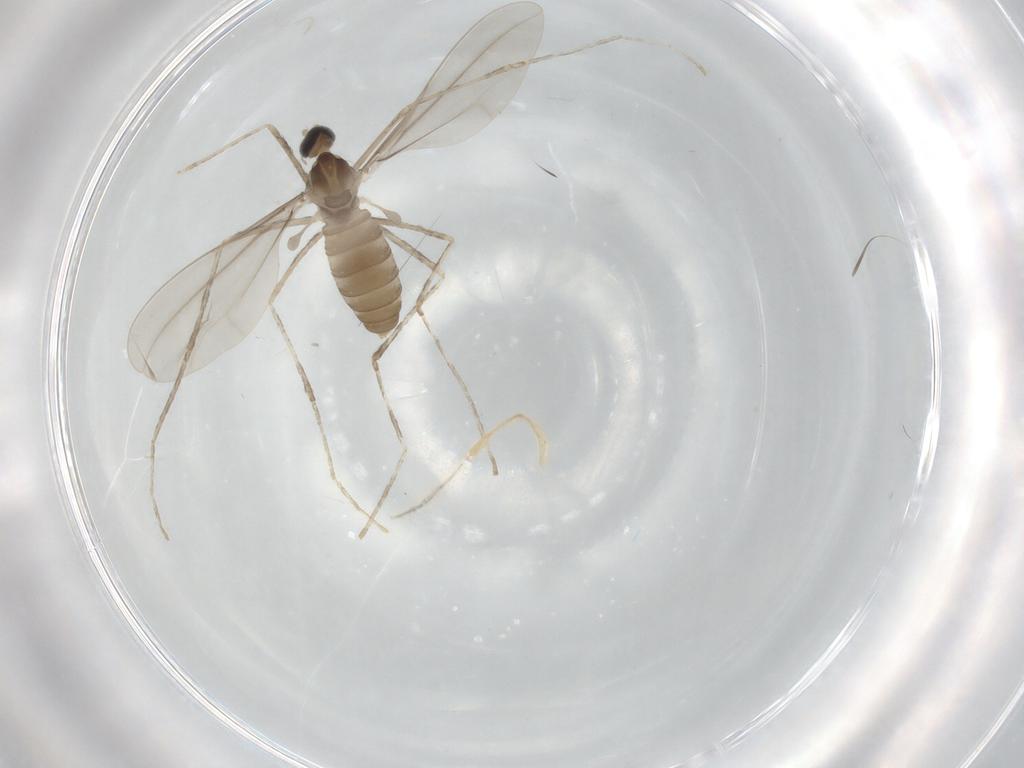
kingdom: Animalia
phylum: Arthropoda
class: Insecta
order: Diptera
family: Cecidomyiidae
